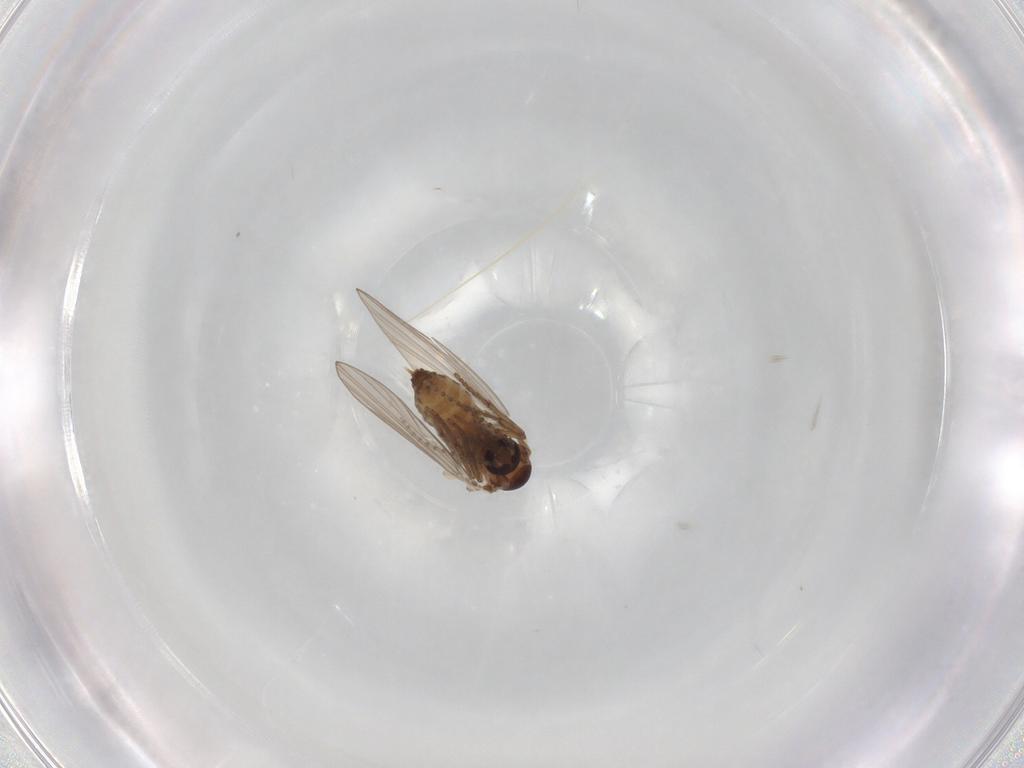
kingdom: Animalia
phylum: Arthropoda
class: Insecta
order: Diptera
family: Psychodidae
